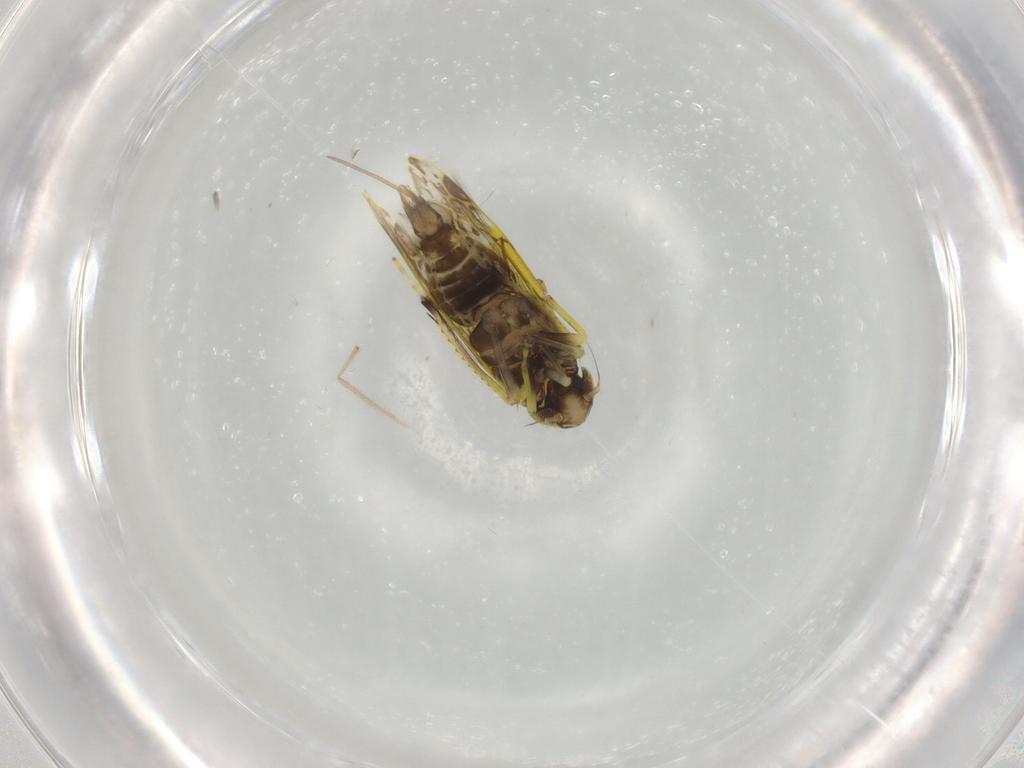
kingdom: Animalia
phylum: Arthropoda
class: Insecta
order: Hemiptera
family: Cicadellidae
